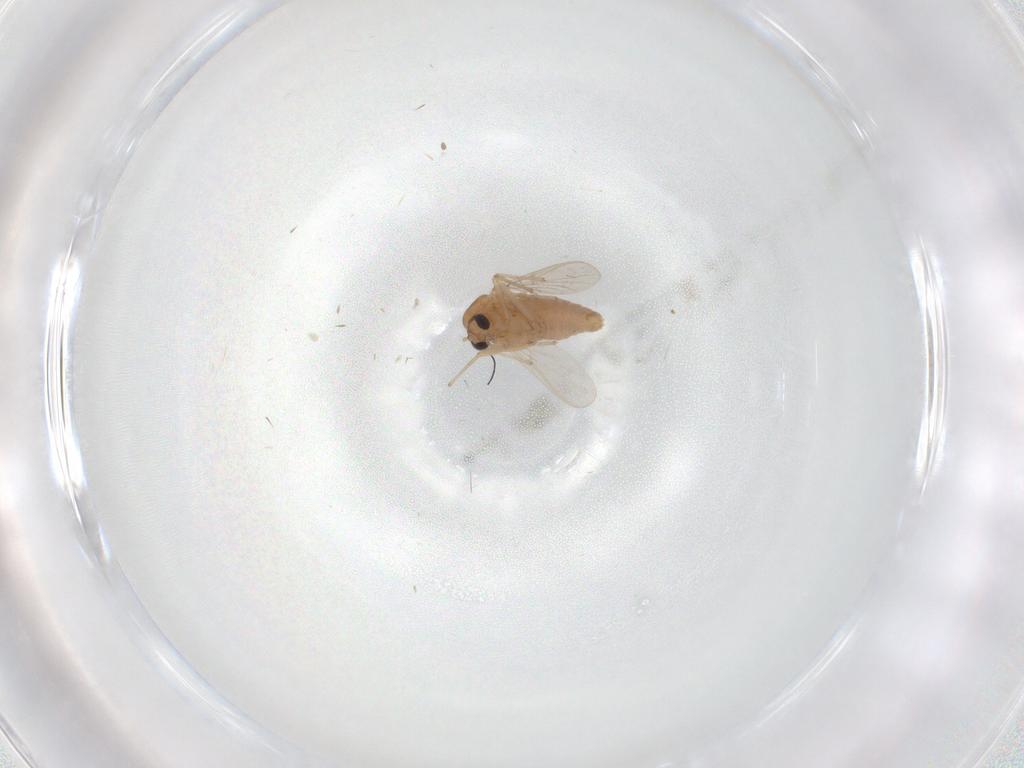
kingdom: Animalia
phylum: Arthropoda
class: Insecta
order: Diptera
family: Chironomidae
